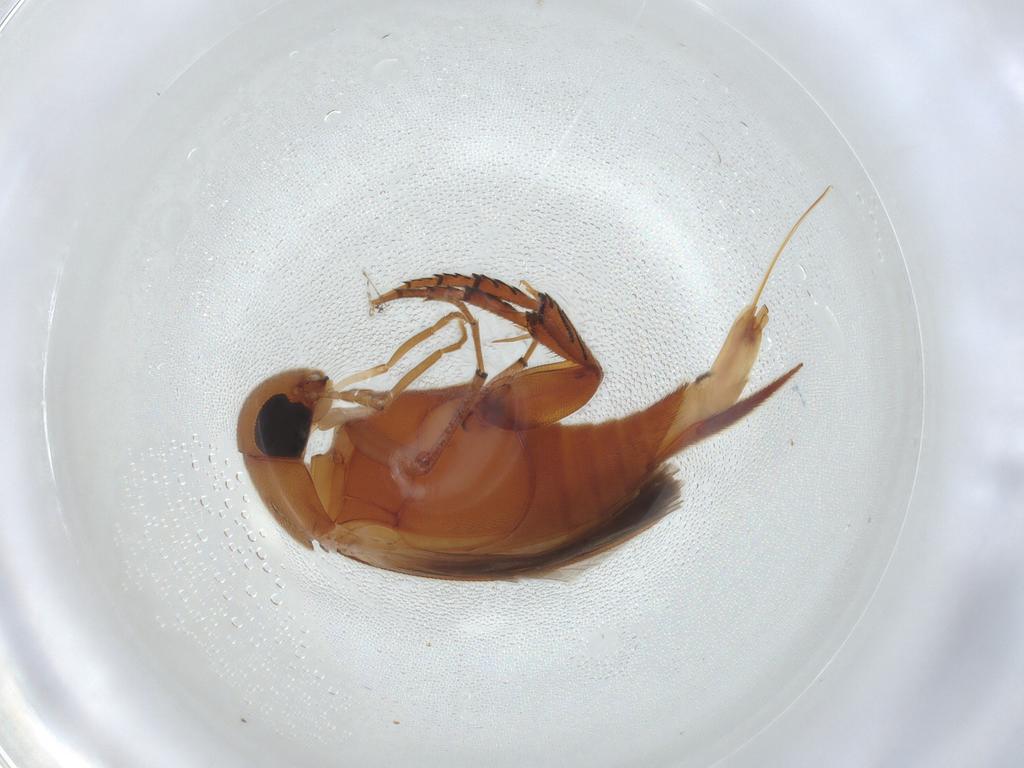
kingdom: Animalia
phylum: Arthropoda
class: Insecta
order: Coleoptera
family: Mordellidae
